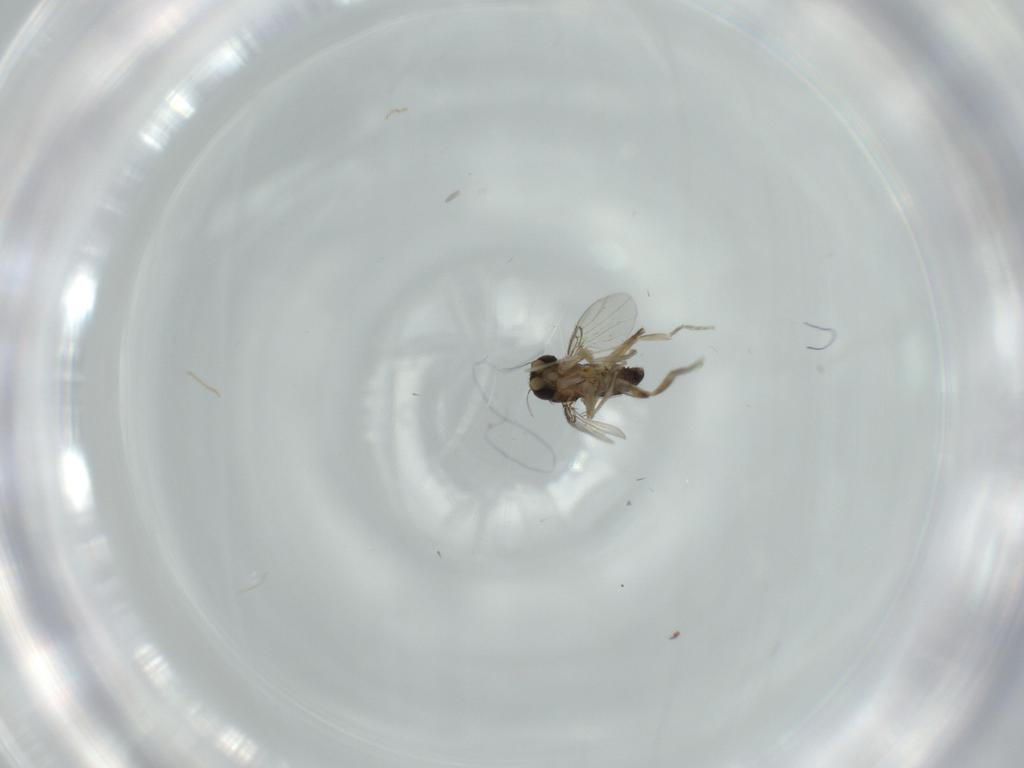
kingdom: Animalia
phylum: Arthropoda
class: Insecta
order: Diptera
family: Phoridae
